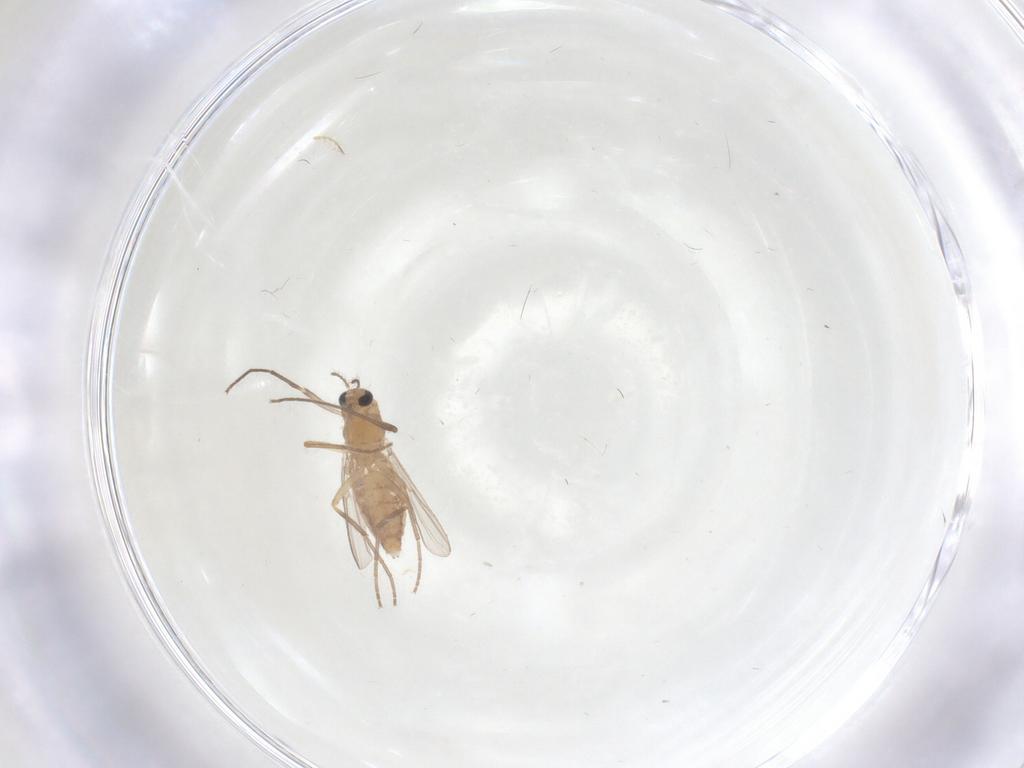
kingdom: Animalia
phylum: Arthropoda
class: Insecta
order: Diptera
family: Chironomidae
